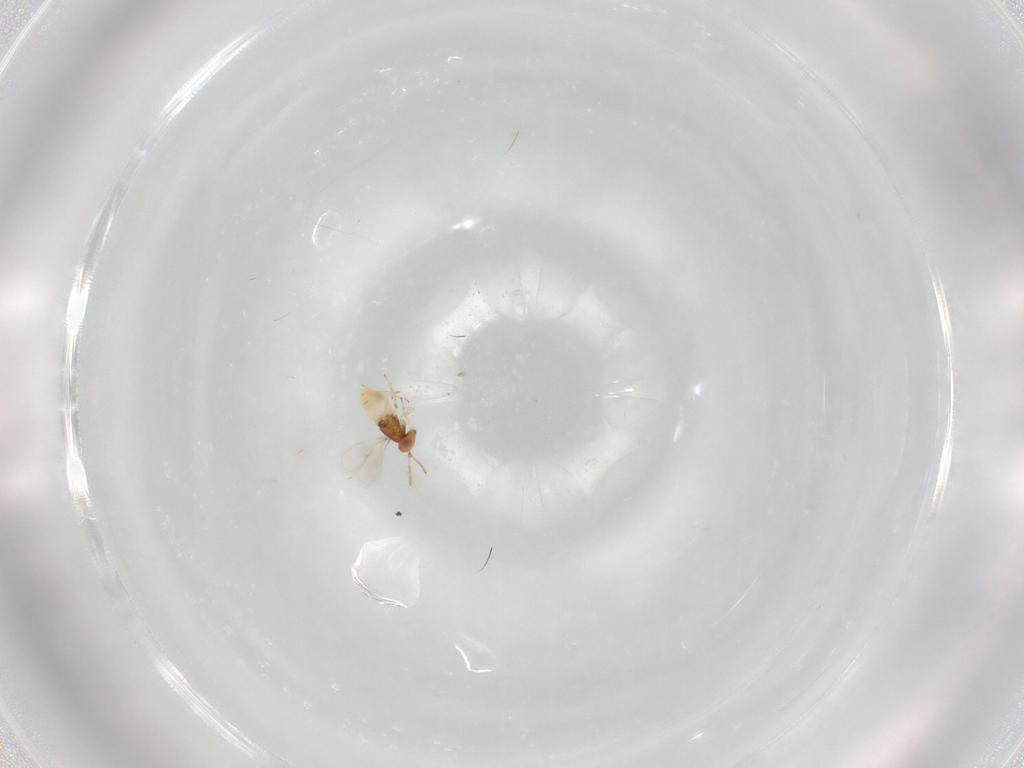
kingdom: Animalia
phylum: Arthropoda
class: Insecta
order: Hymenoptera
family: Aphelinidae
